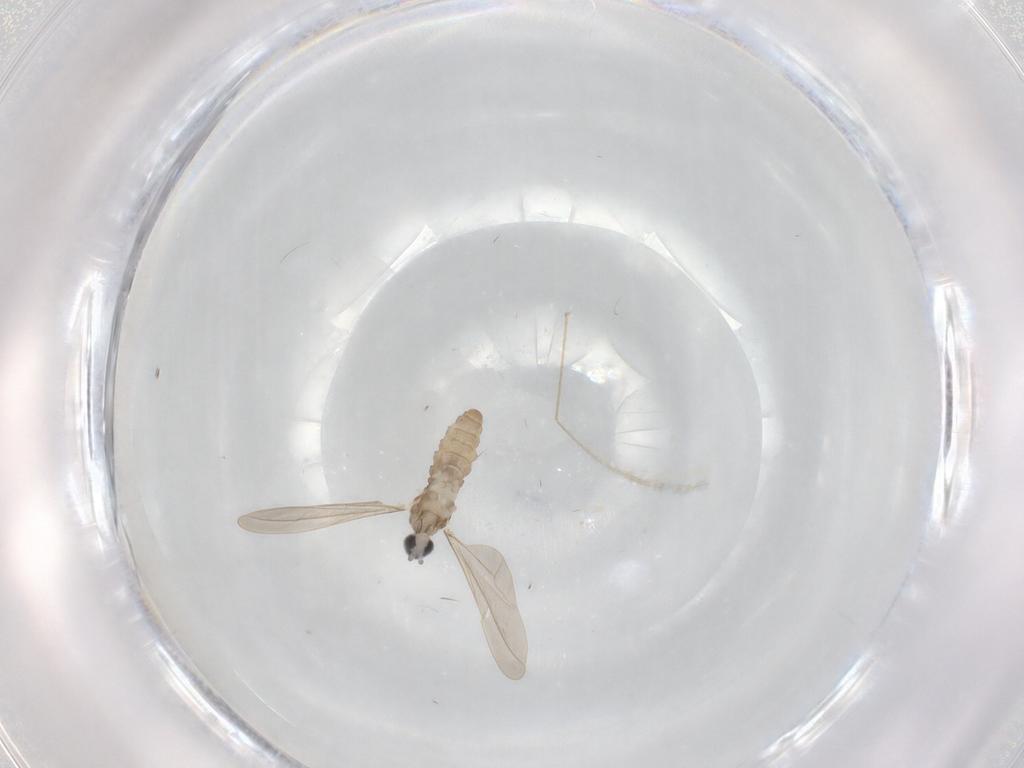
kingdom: Animalia
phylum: Arthropoda
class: Insecta
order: Diptera
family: Cecidomyiidae
